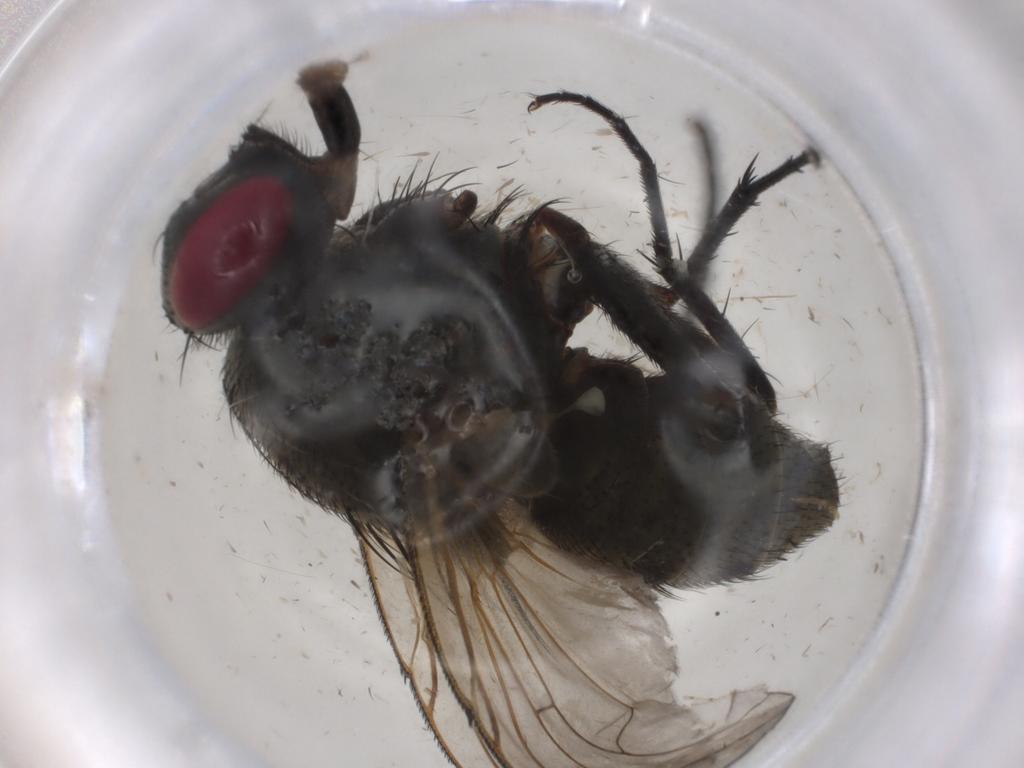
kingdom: Animalia
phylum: Arthropoda
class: Insecta
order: Diptera
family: Muscidae
